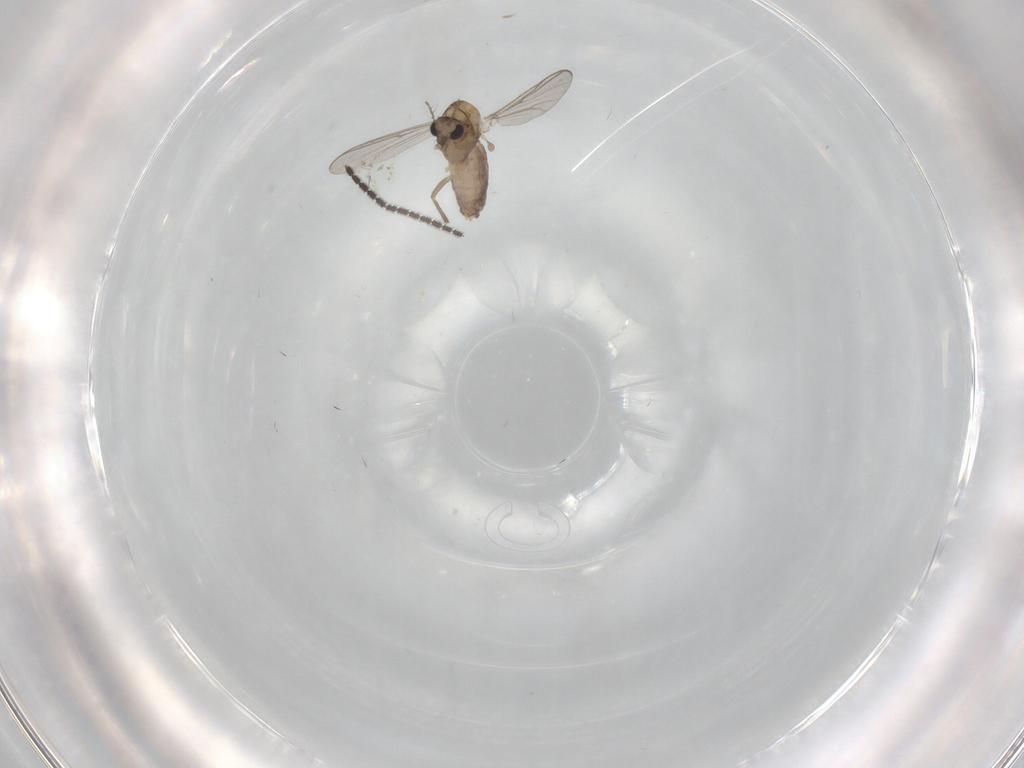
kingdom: Animalia
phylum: Arthropoda
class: Insecta
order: Diptera
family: Chironomidae
